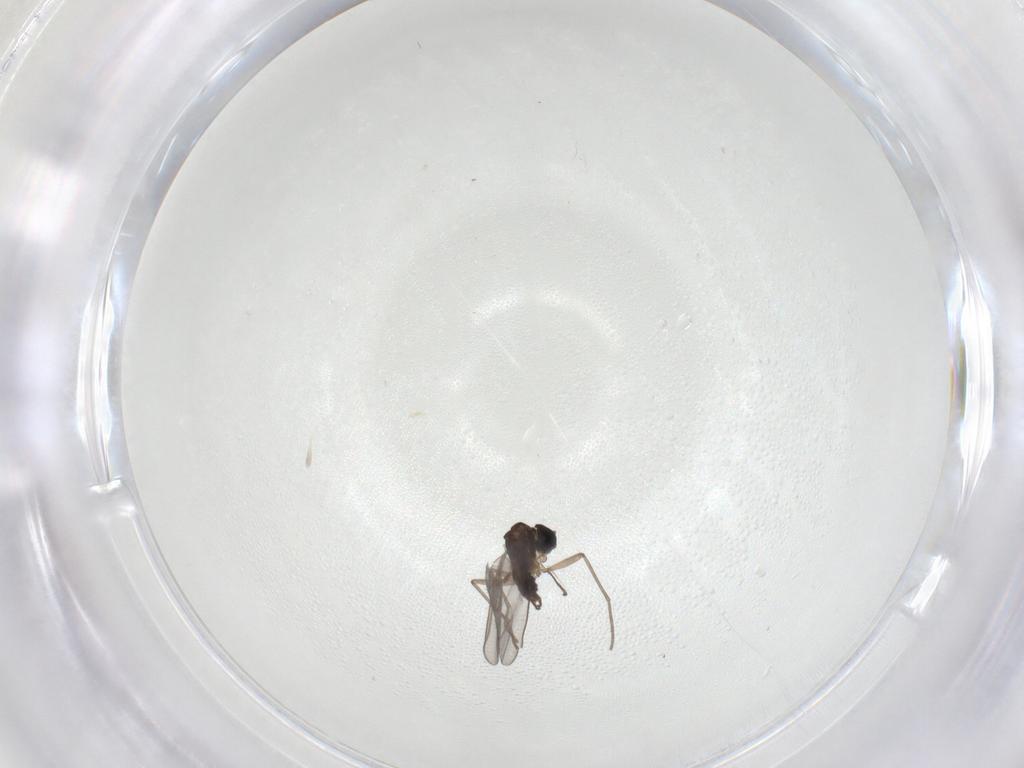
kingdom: Animalia
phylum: Arthropoda
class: Insecta
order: Diptera
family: Sciaridae
